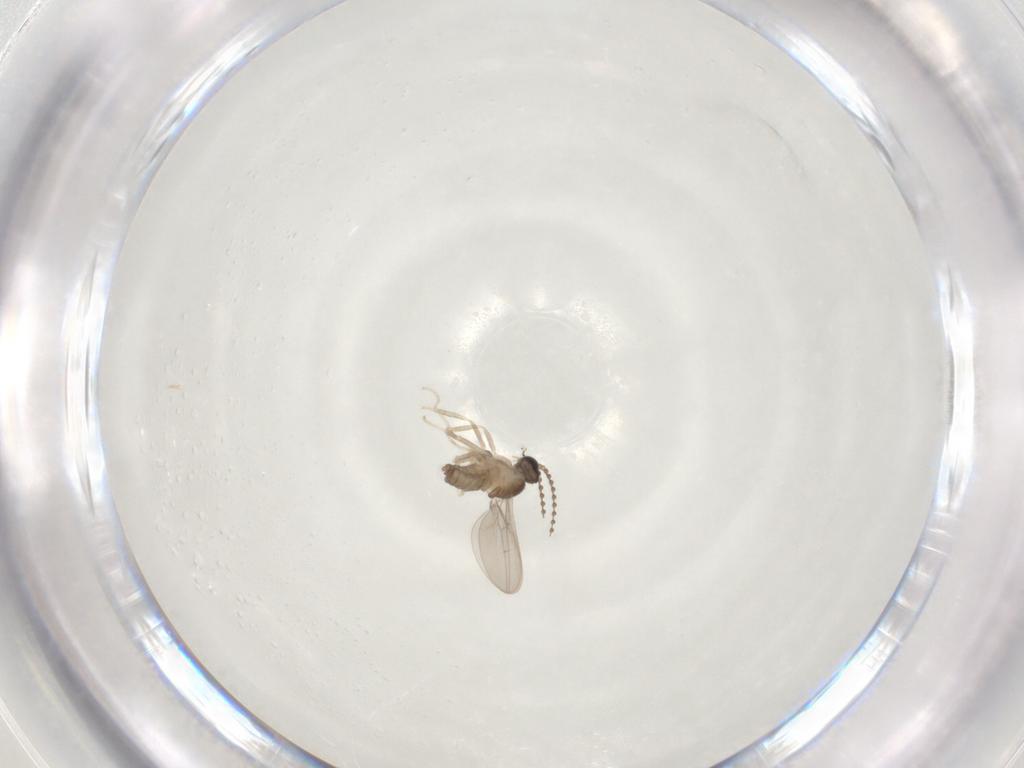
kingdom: Animalia
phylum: Arthropoda
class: Insecta
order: Diptera
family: Cecidomyiidae
